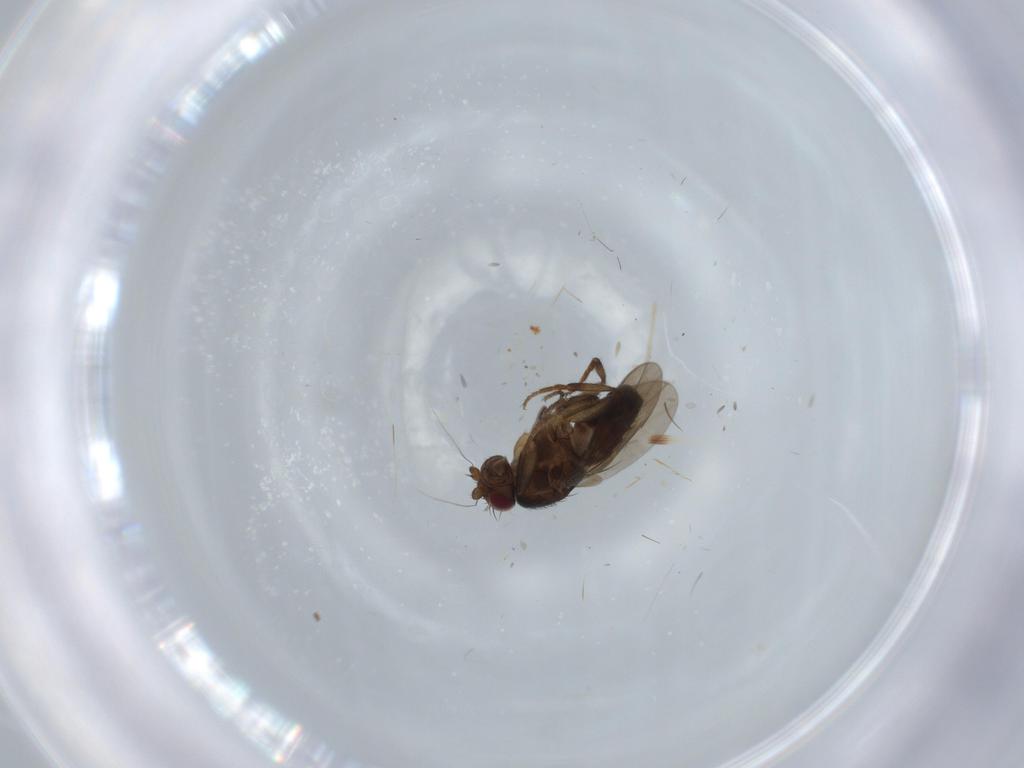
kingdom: Animalia
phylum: Arthropoda
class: Insecta
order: Diptera
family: Sphaeroceridae
